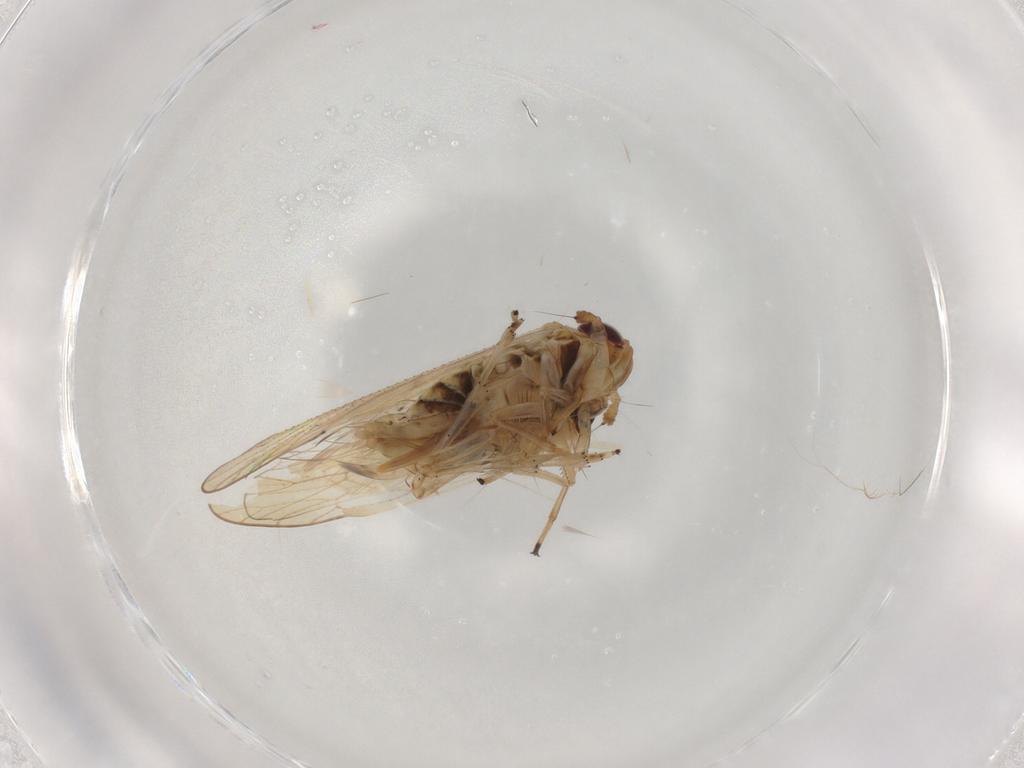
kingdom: Animalia
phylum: Arthropoda
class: Insecta
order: Hemiptera
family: Delphacidae
